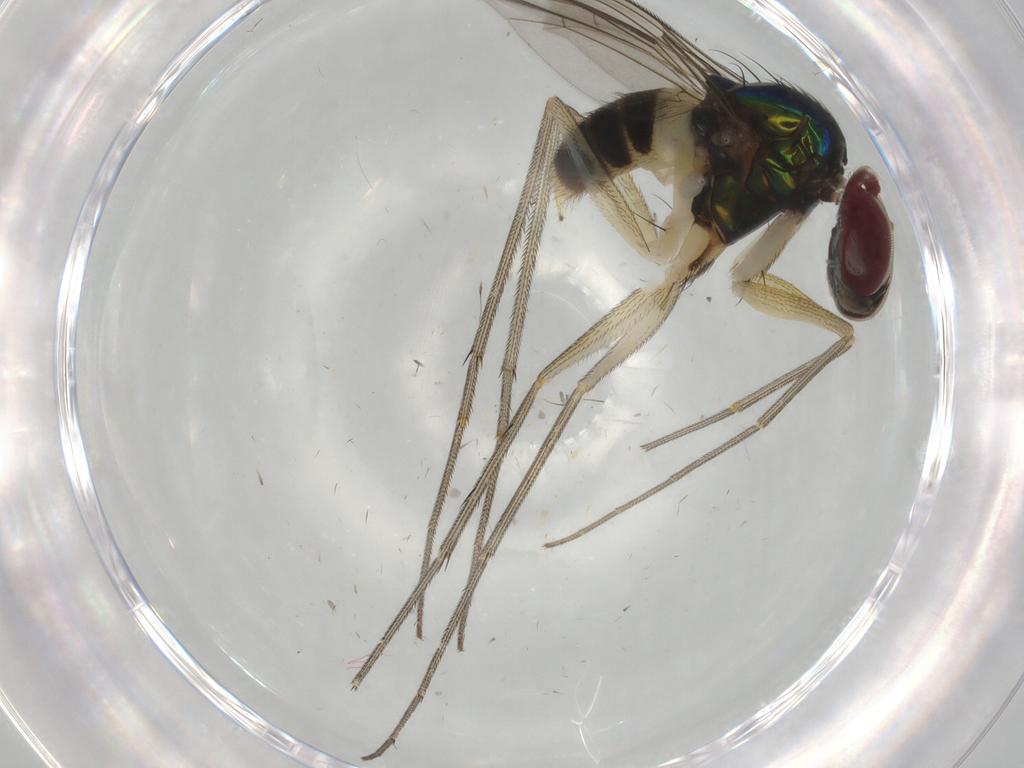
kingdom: Animalia
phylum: Arthropoda
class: Insecta
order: Diptera
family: Dolichopodidae
